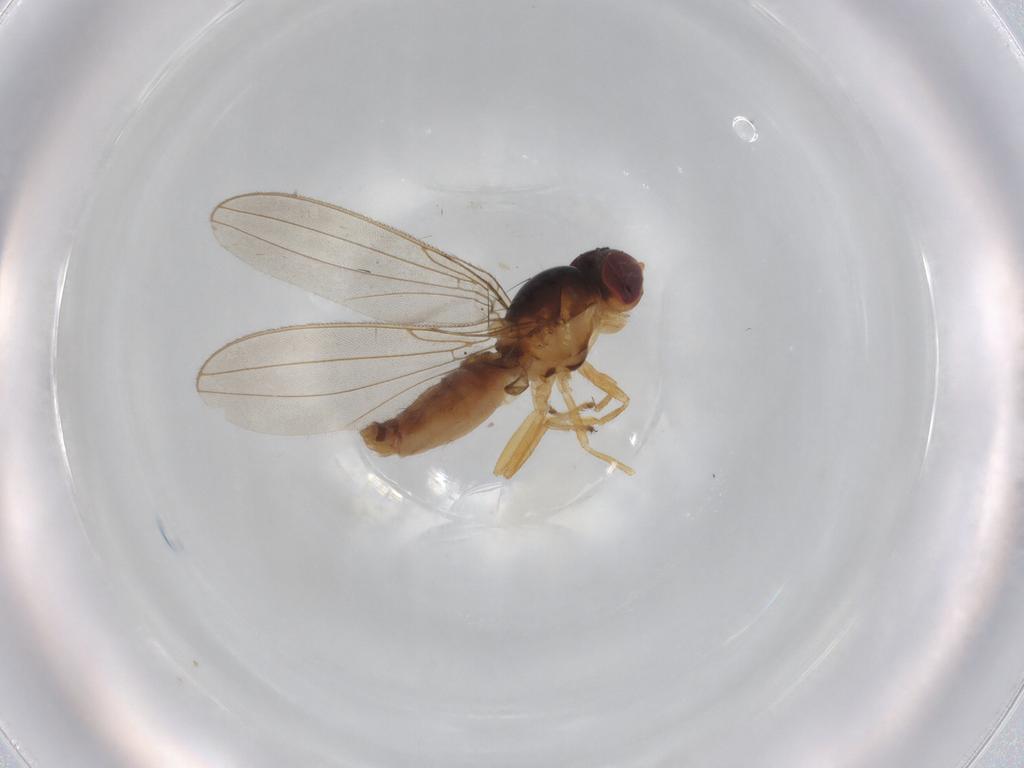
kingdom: Animalia
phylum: Arthropoda
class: Insecta
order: Diptera
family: Asteiidae
